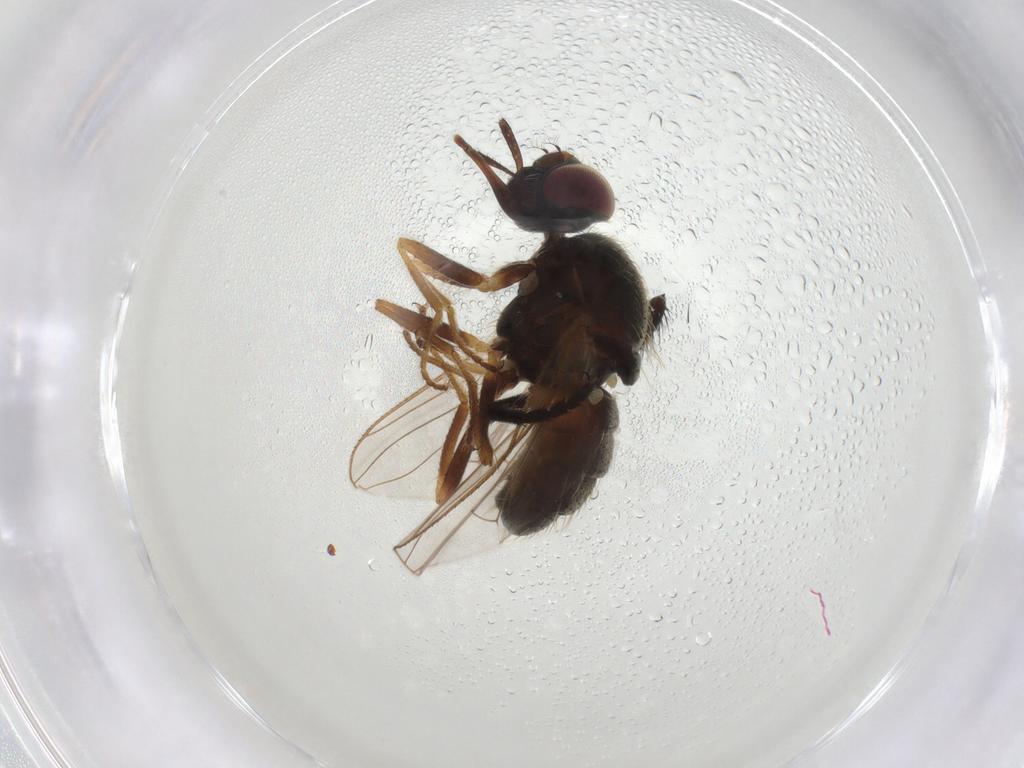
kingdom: Animalia
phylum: Arthropoda
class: Insecta
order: Diptera
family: Muscidae
